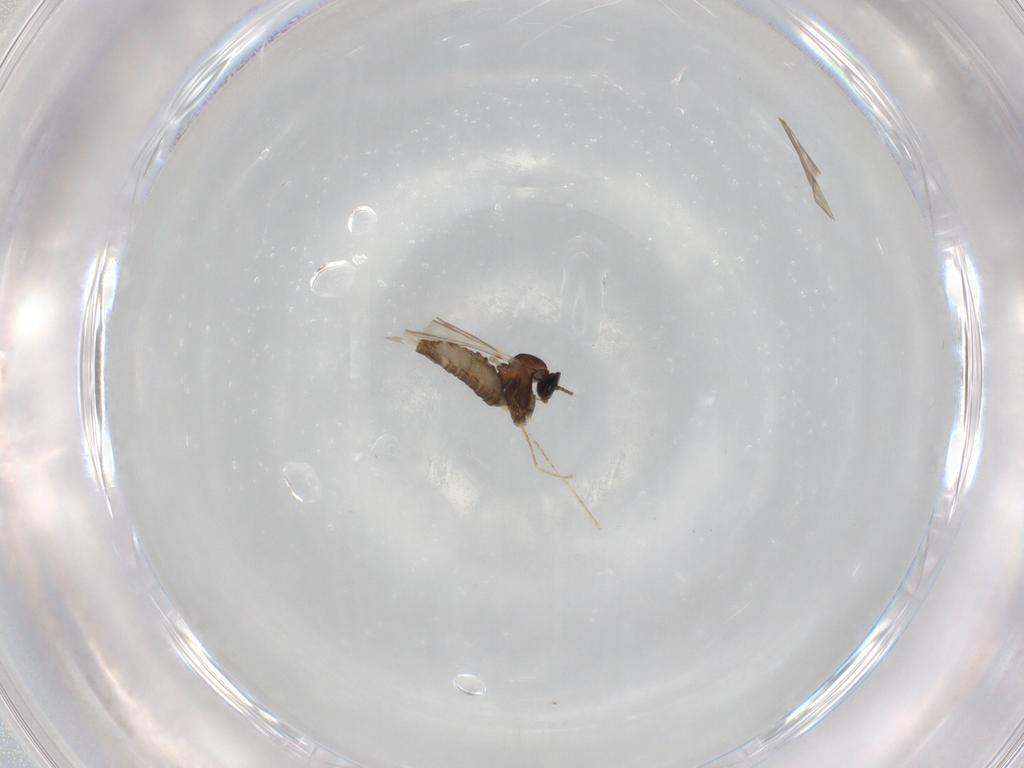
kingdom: Animalia
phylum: Arthropoda
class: Insecta
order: Diptera
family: Cecidomyiidae
